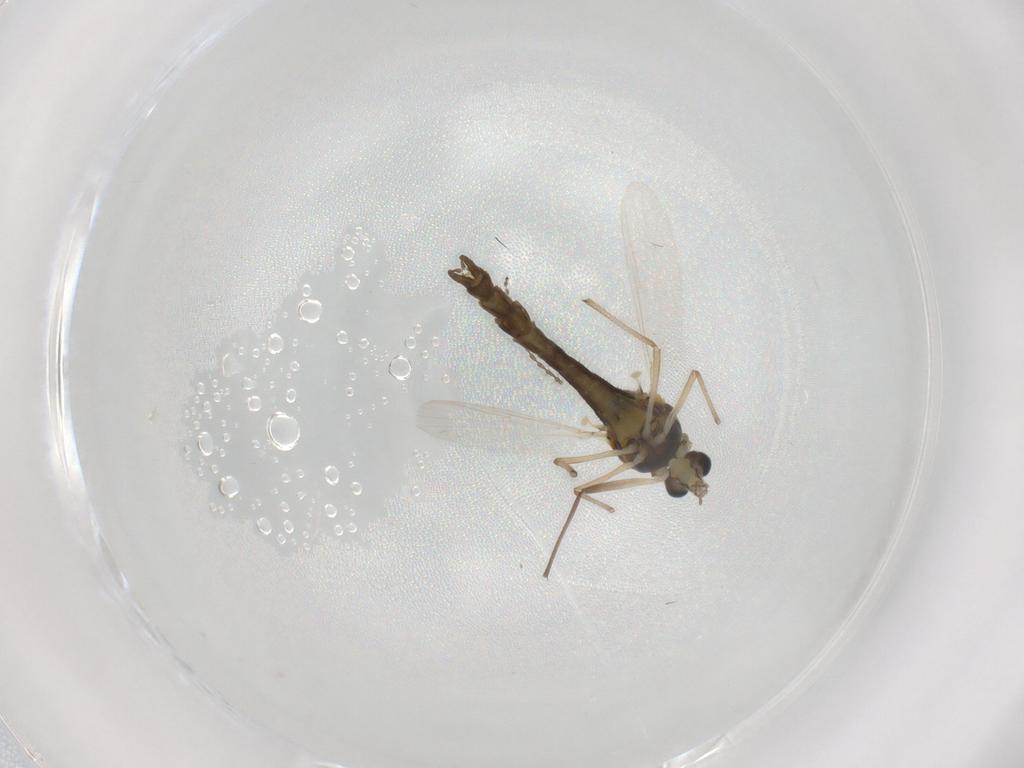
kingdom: Animalia
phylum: Arthropoda
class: Insecta
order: Diptera
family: Chironomidae
